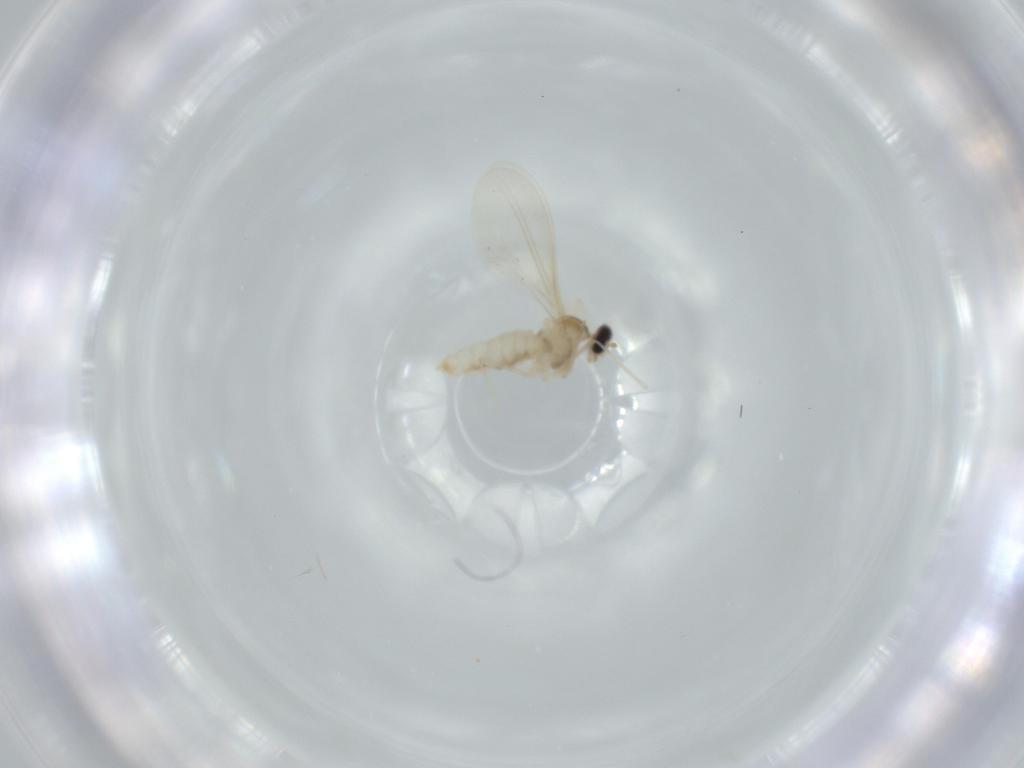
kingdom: Animalia
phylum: Arthropoda
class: Insecta
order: Diptera
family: Cecidomyiidae
